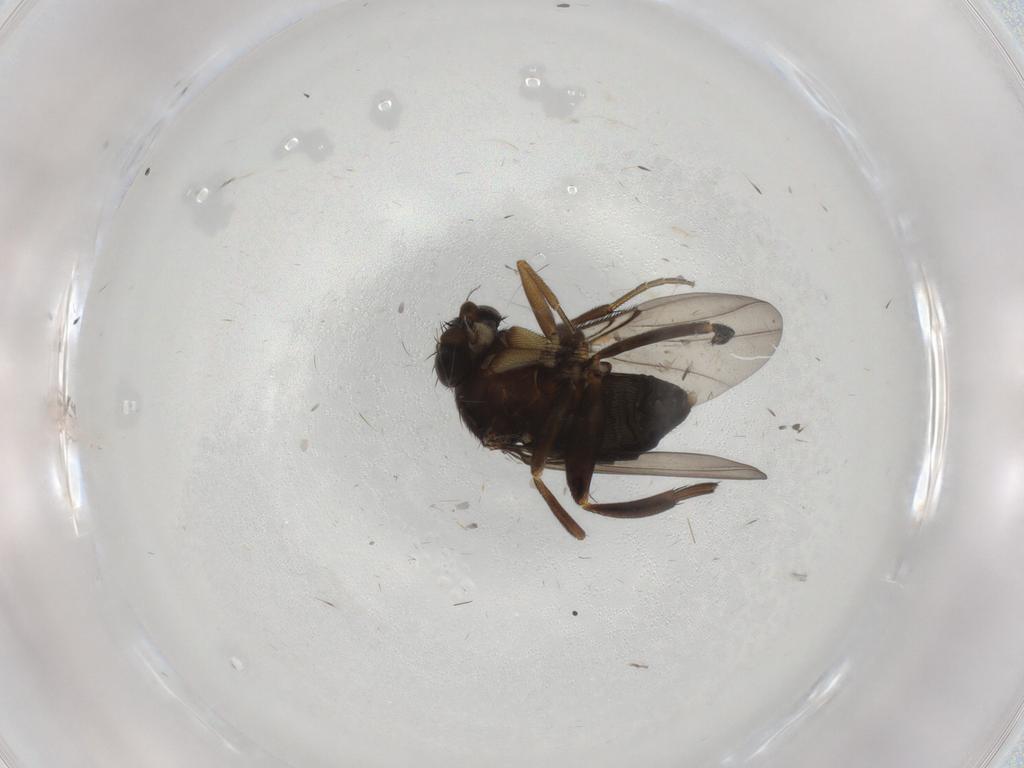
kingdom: Animalia
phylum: Arthropoda
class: Insecta
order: Diptera
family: Phoridae
